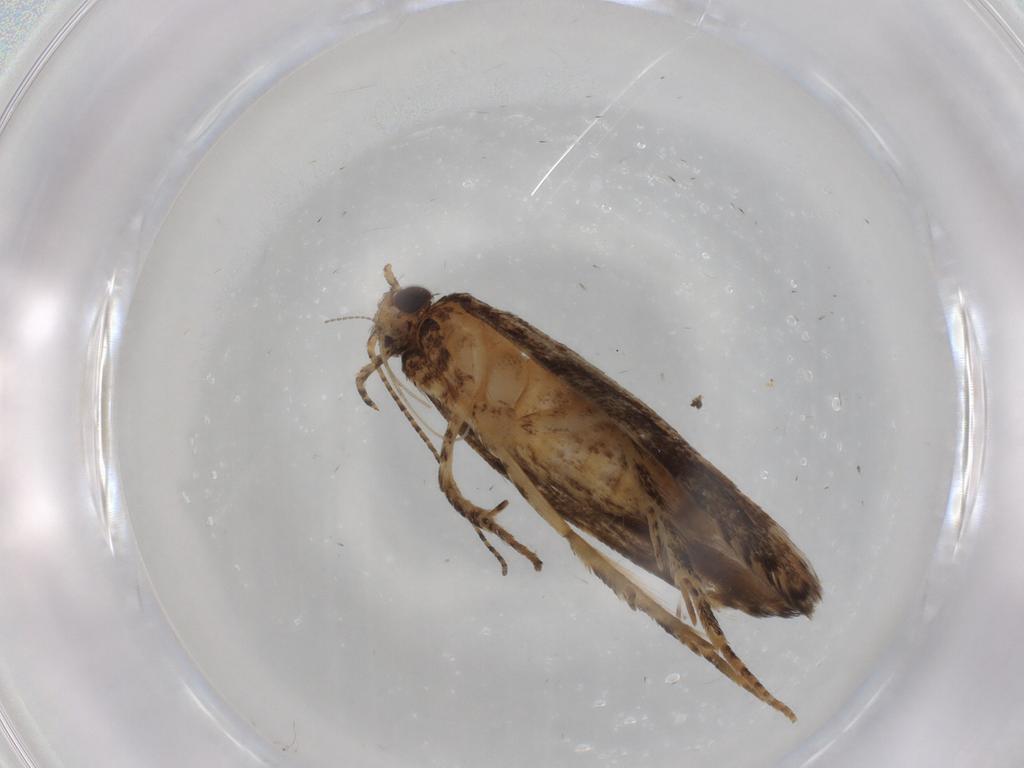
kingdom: Animalia
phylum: Arthropoda
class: Insecta
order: Lepidoptera
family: Gelechiidae
